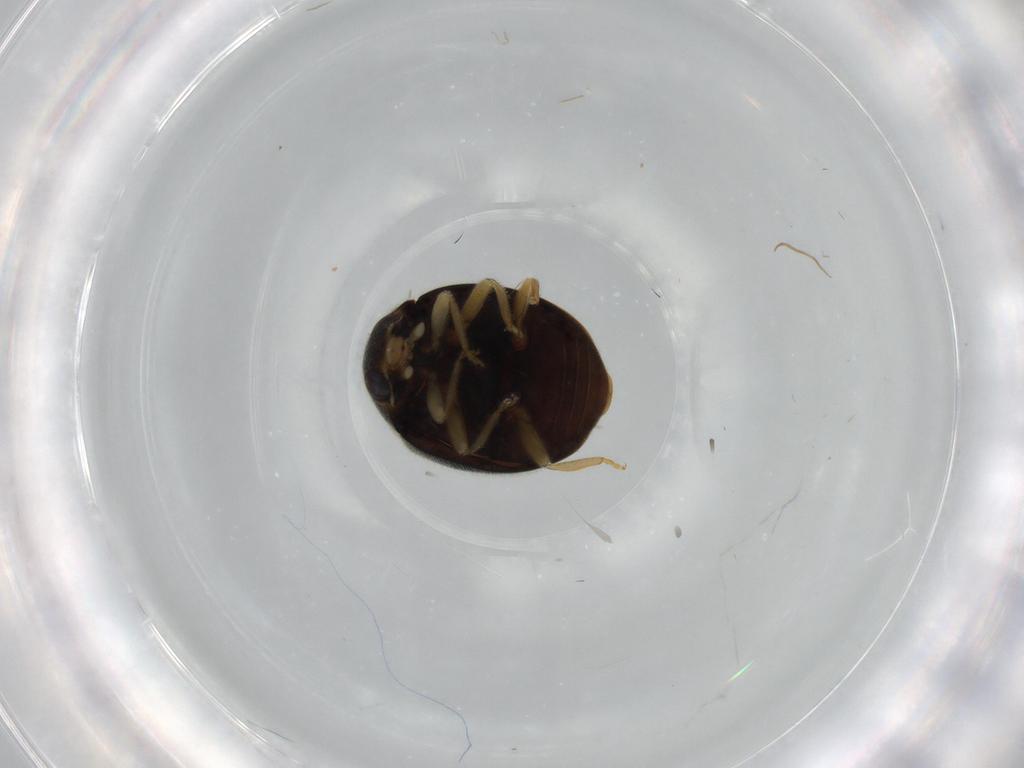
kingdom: Animalia
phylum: Arthropoda
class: Insecta
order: Coleoptera
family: Coccinellidae
